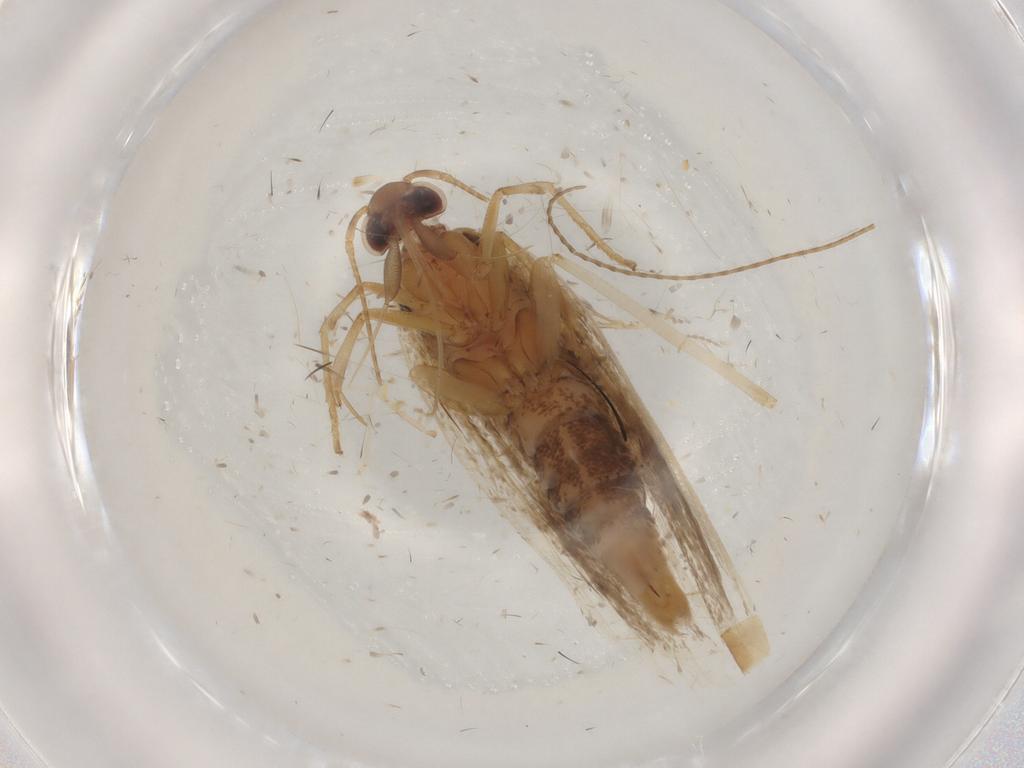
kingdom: Animalia
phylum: Arthropoda
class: Insecta
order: Lepidoptera
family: Gelechiidae
